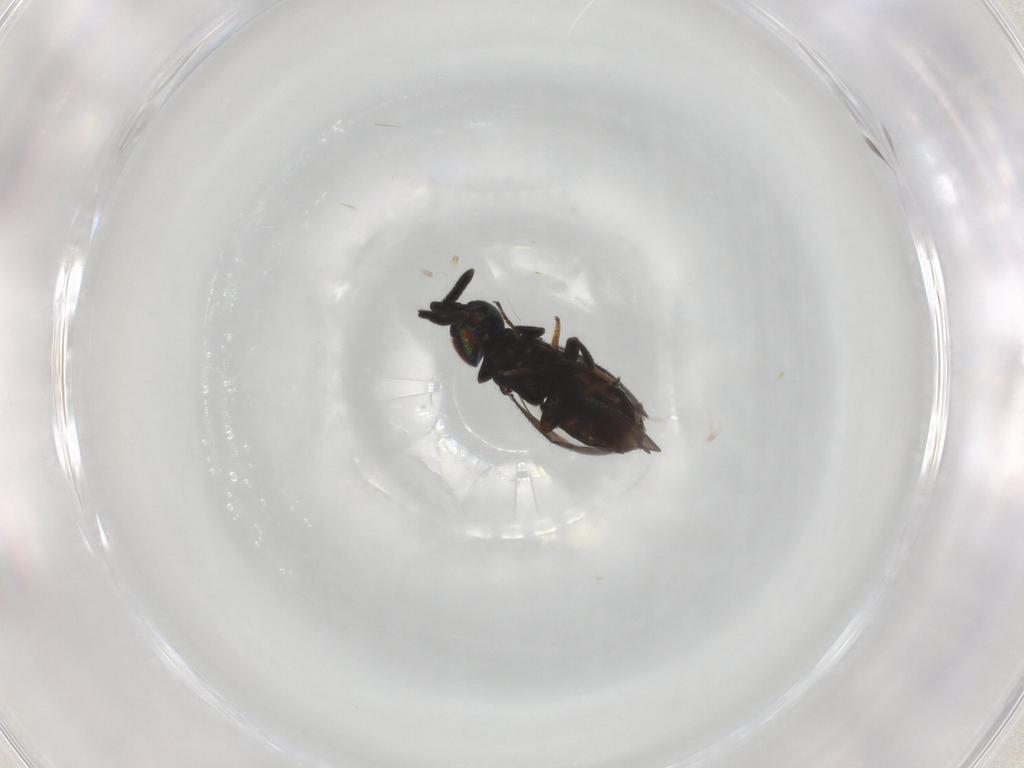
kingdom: Animalia
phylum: Arthropoda
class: Insecta
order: Hymenoptera
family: Encyrtidae
